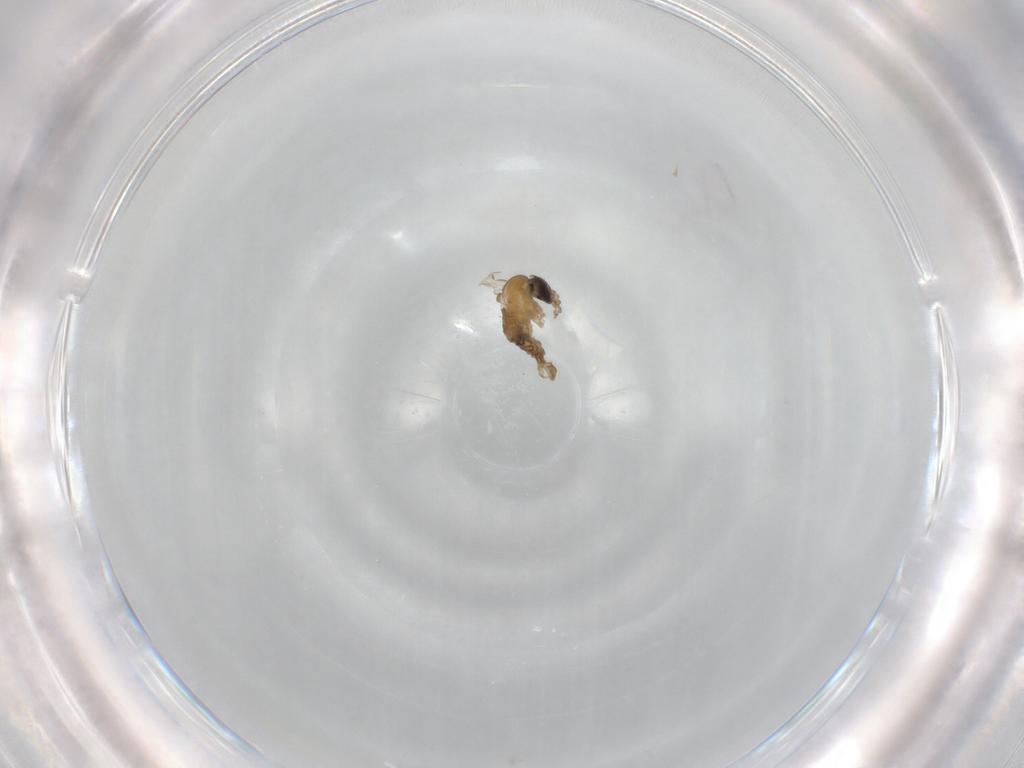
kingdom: Animalia
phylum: Arthropoda
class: Insecta
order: Diptera
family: Psychodidae
